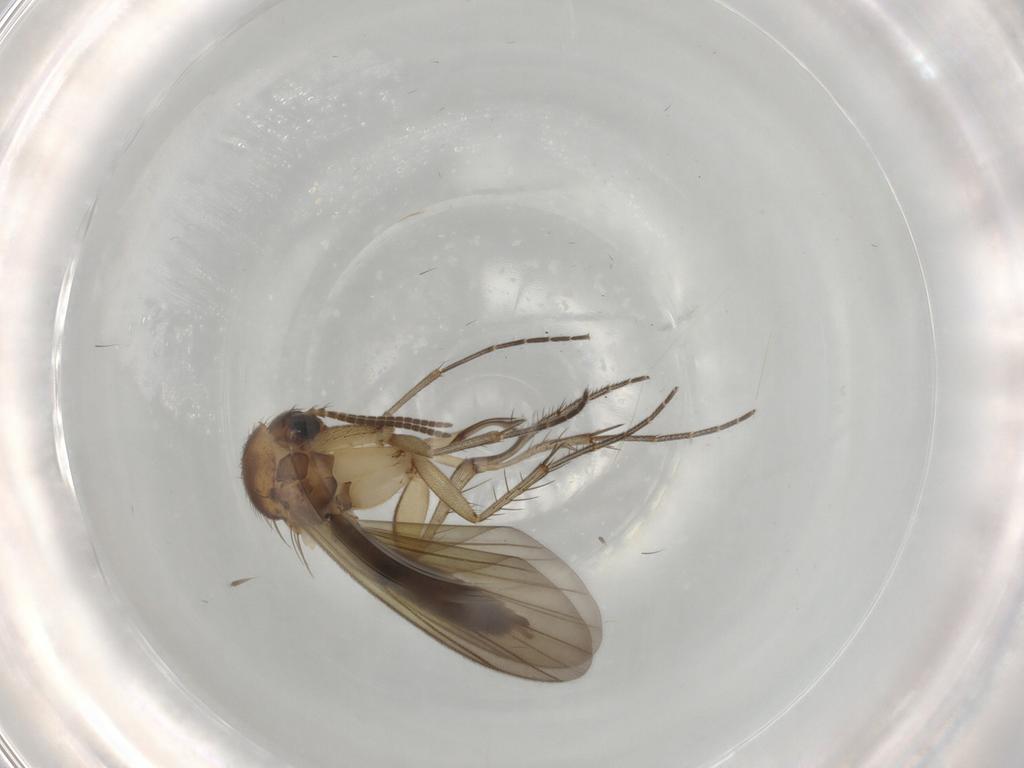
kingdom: Animalia
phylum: Arthropoda
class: Insecta
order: Diptera
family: Mycetophilidae
